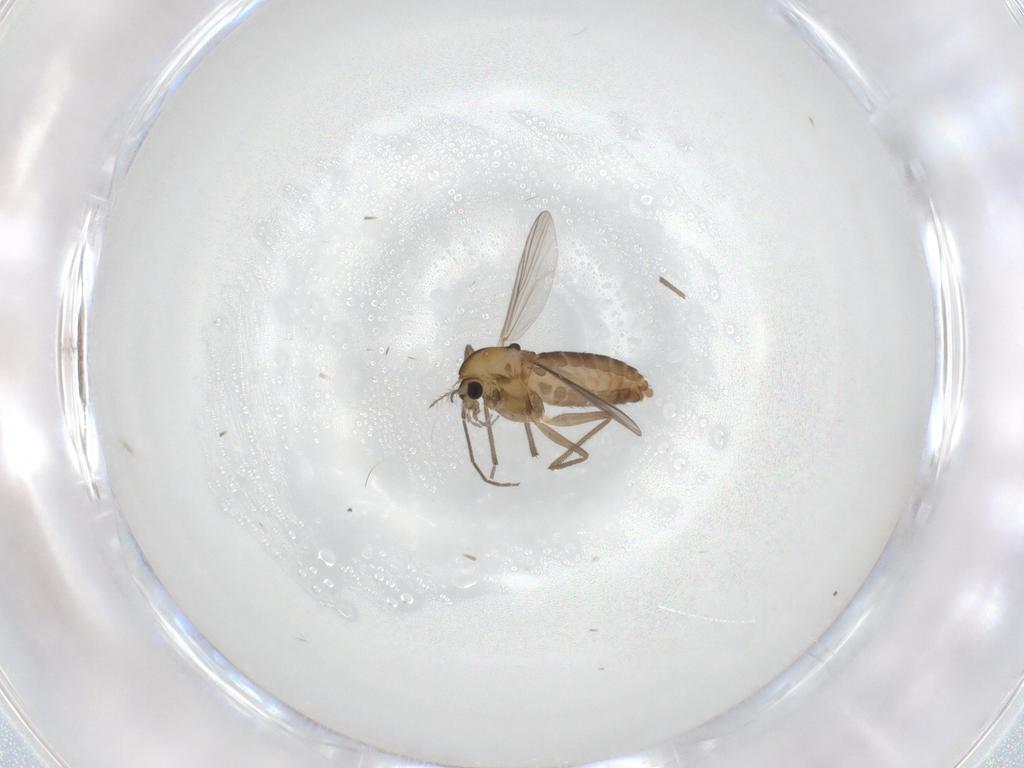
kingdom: Animalia
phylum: Arthropoda
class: Insecta
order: Diptera
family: Chironomidae
